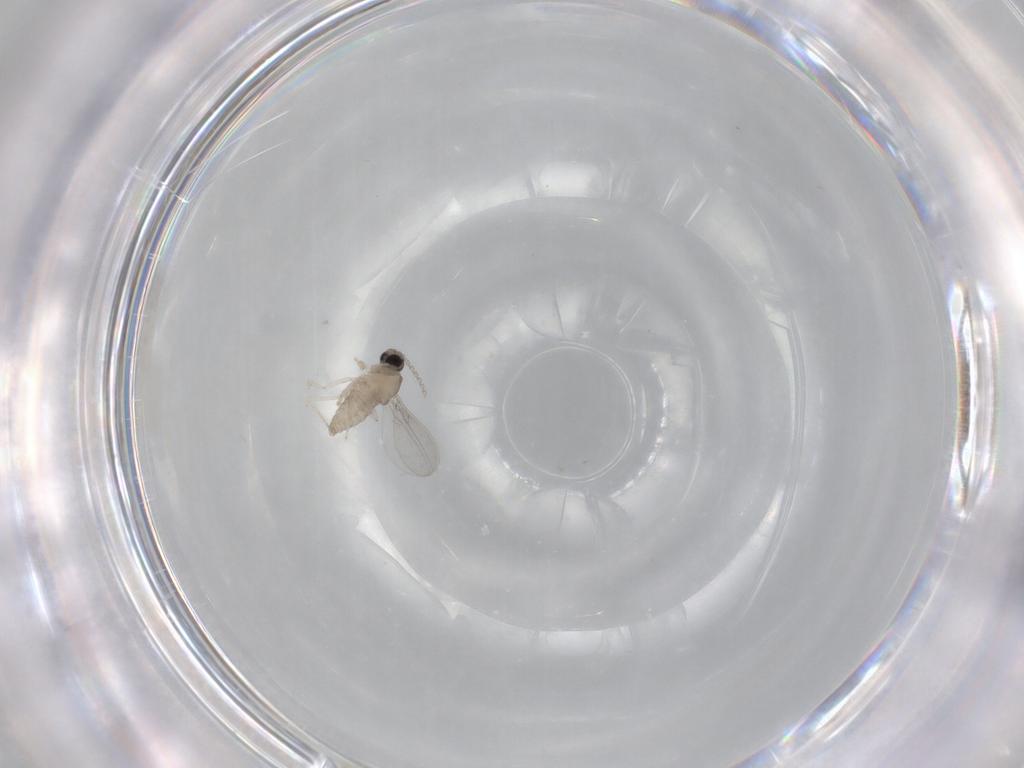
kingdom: Animalia
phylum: Arthropoda
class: Insecta
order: Diptera
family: Cecidomyiidae
